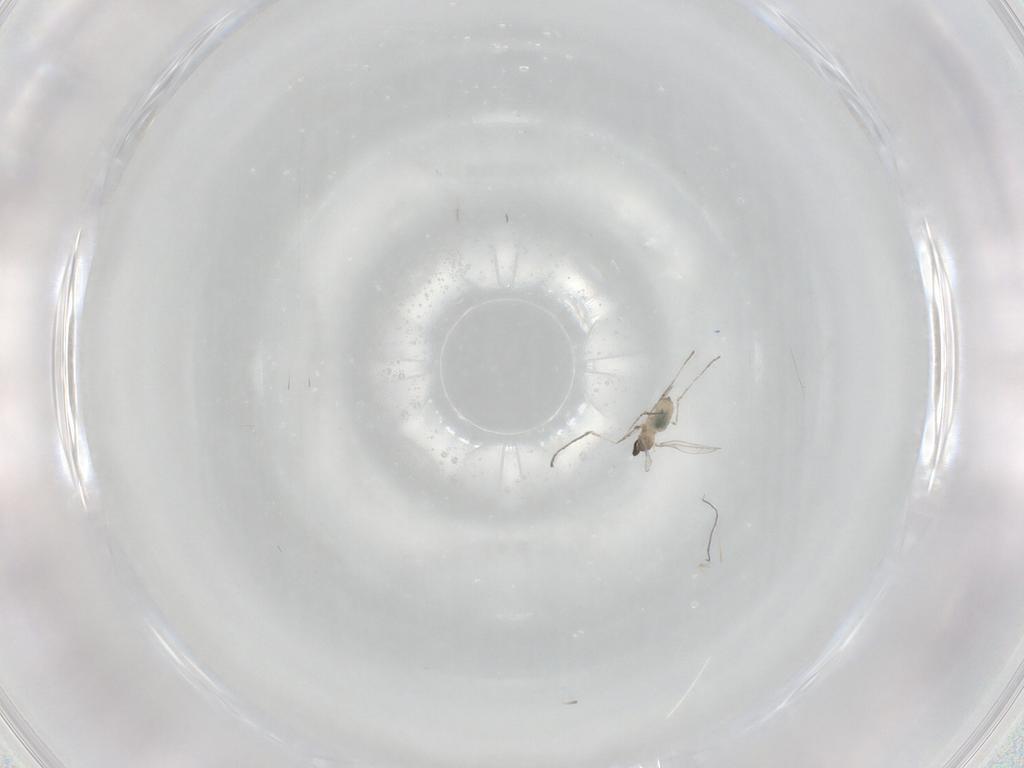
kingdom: Animalia
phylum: Arthropoda
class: Insecta
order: Diptera
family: Cecidomyiidae
